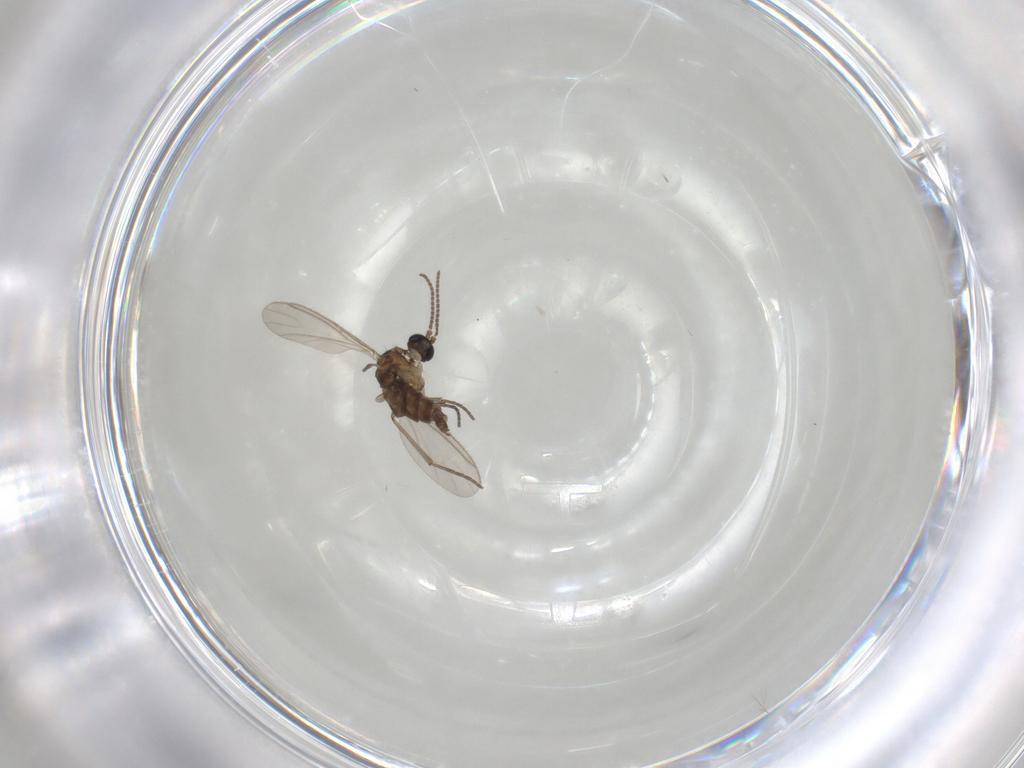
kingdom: Animalia
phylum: Arthropoda
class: Insecta
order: Diptera
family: Sciaridae
